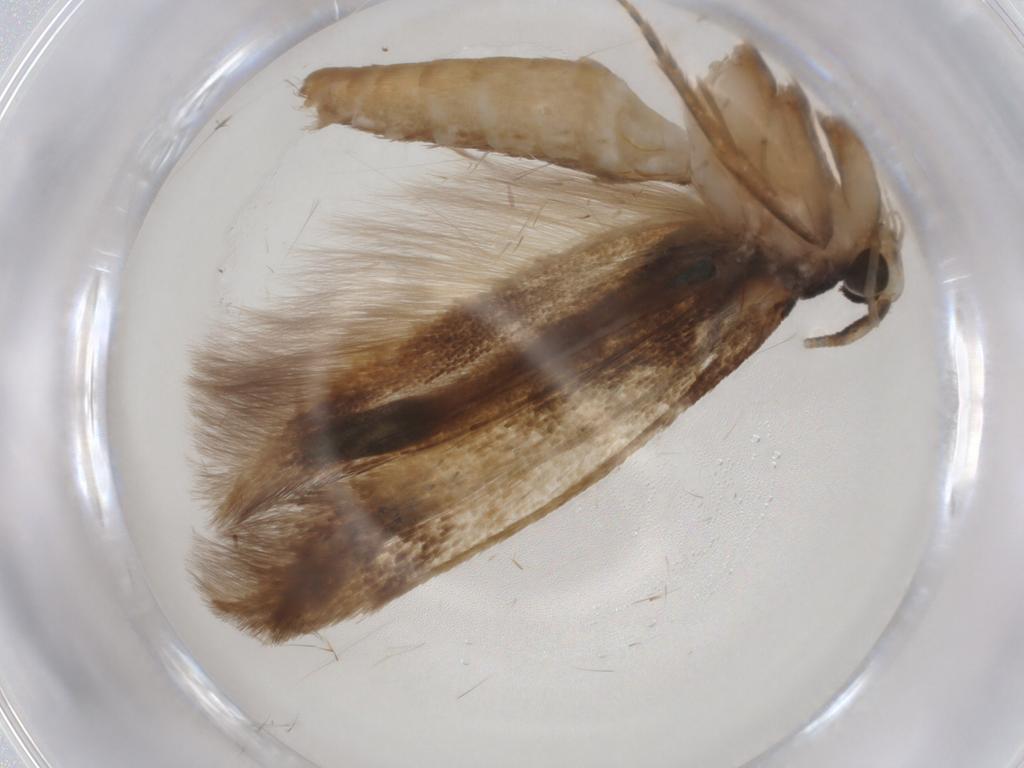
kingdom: Animalia
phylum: Arthropoda
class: Insecta
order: Lepidoptera
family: Tineidae
